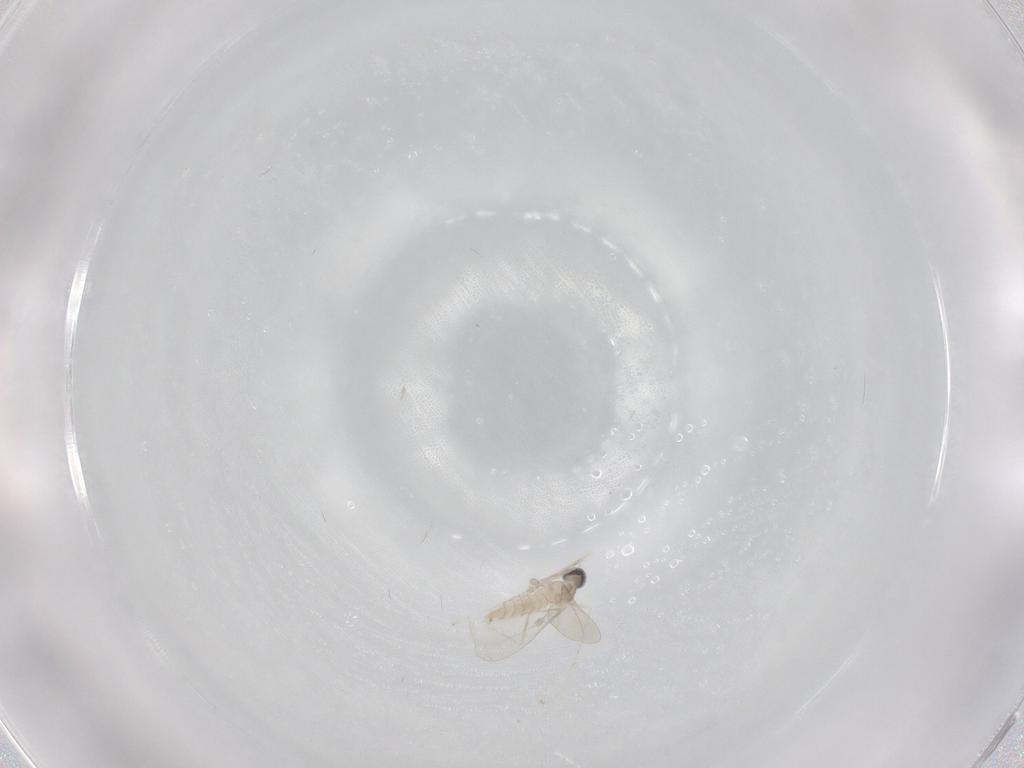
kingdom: Animalia
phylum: Arthropoda
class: Insecta
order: Diptera
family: Cecidomyiidae
